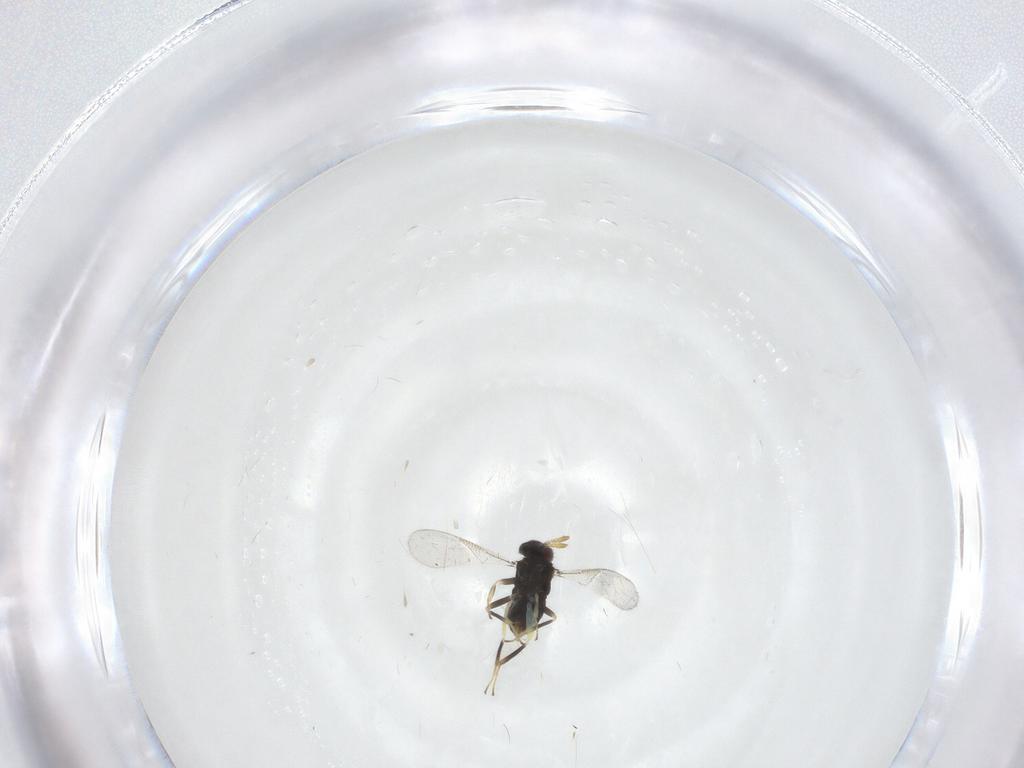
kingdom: Animalia
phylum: Arthropoda
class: Insecta
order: Hymenoptera
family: Aphelinidae
